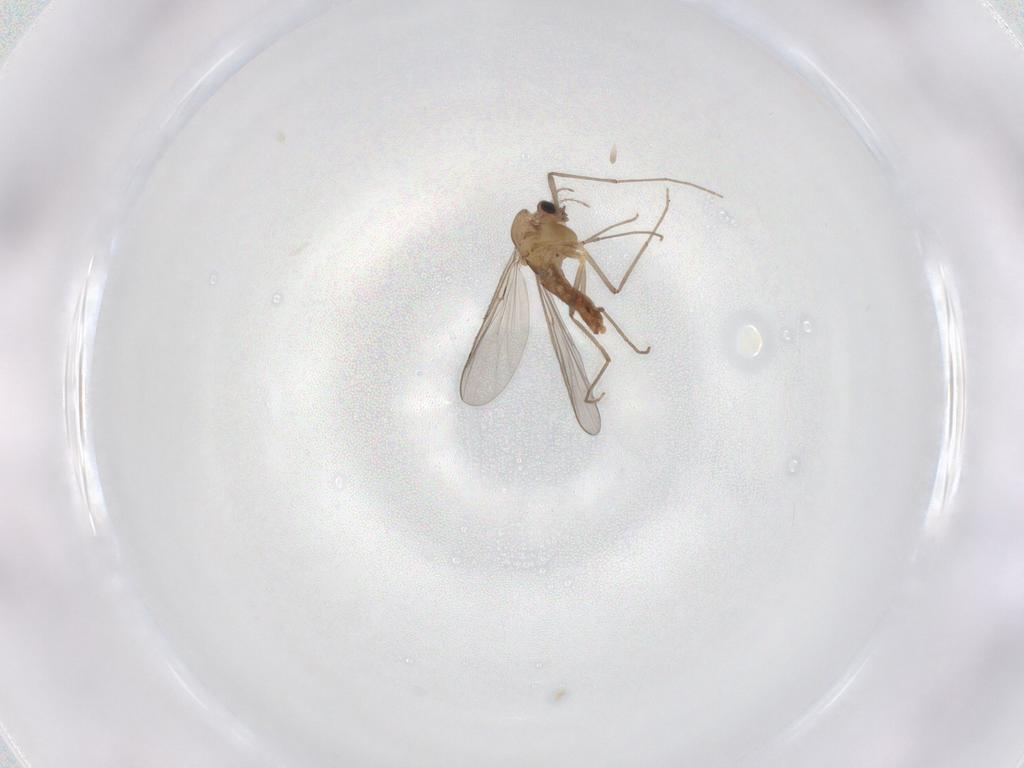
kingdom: Animalia
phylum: Arthropoda
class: Insecta
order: Diptera
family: Chironomidae
